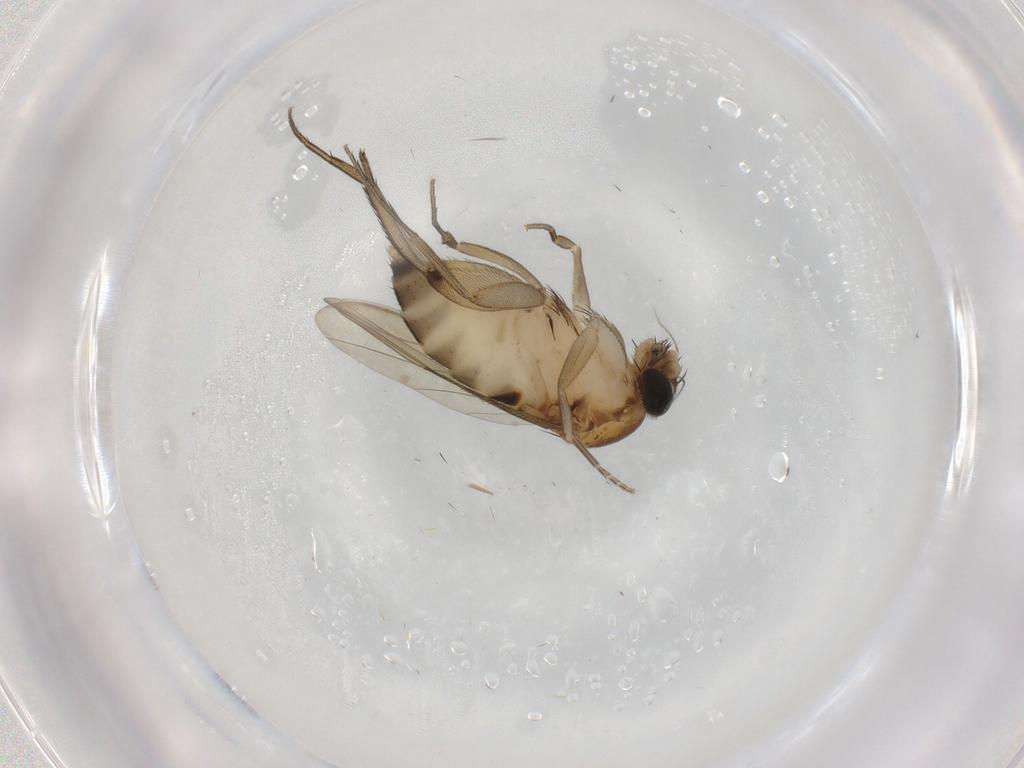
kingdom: Animalia
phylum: Arthropoda
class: Insecta
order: Diptera
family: Phoridae
